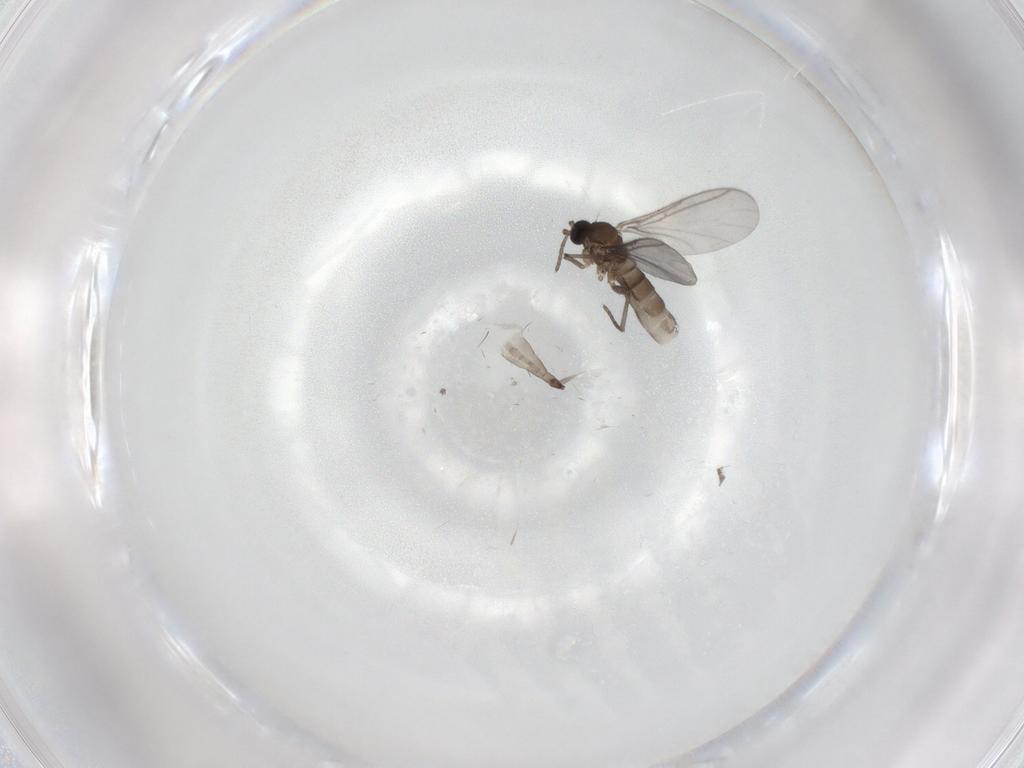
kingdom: Animalia
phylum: Arthropoda
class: Insecta
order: Diptera
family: Sciaridae
